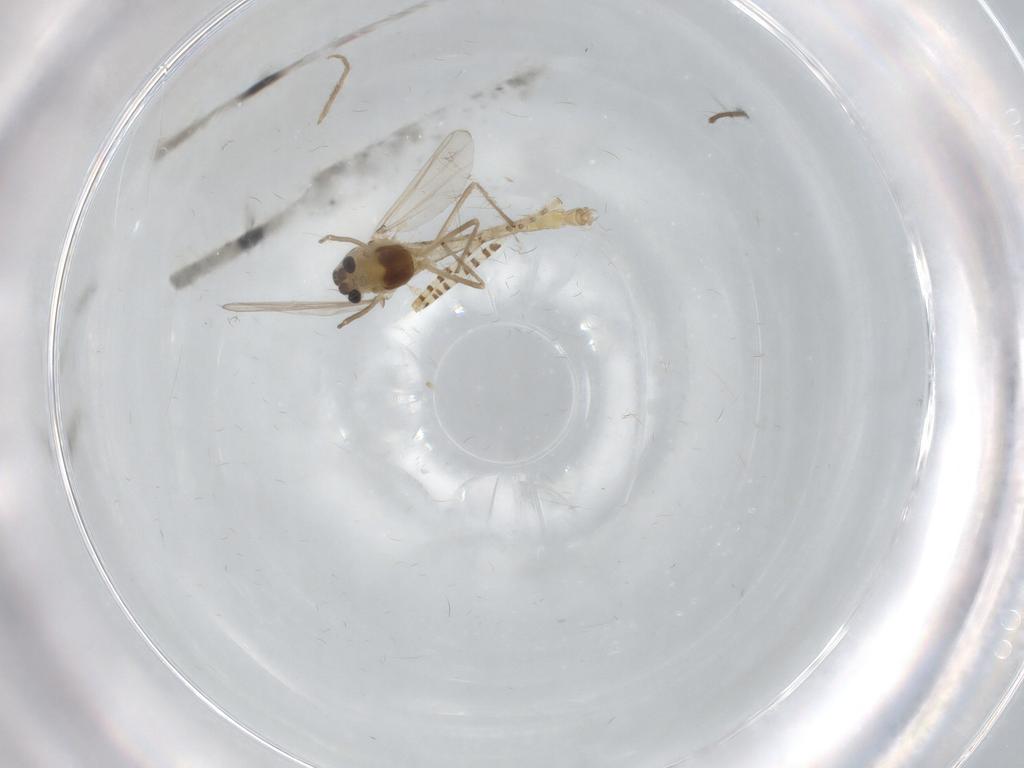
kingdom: Animalia
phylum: Arthropoda
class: Insecta
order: Diptera
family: Chironomidae
